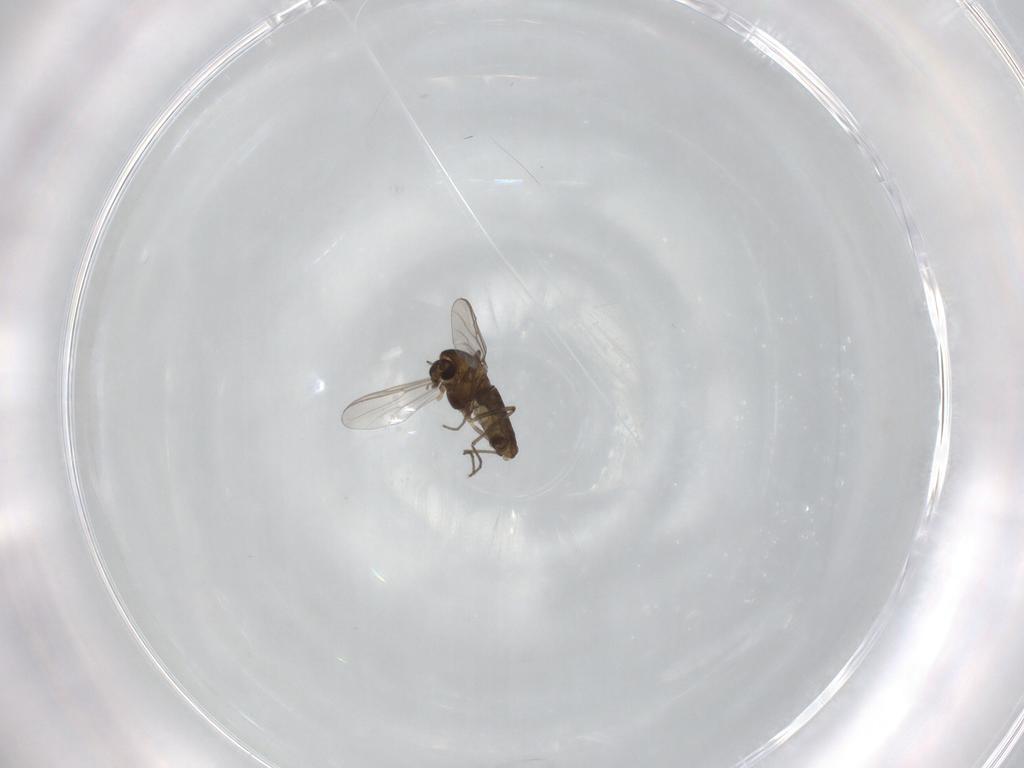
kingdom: Animalia
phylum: Arthropoda
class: Insecta
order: Diptera
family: Chironomidae
